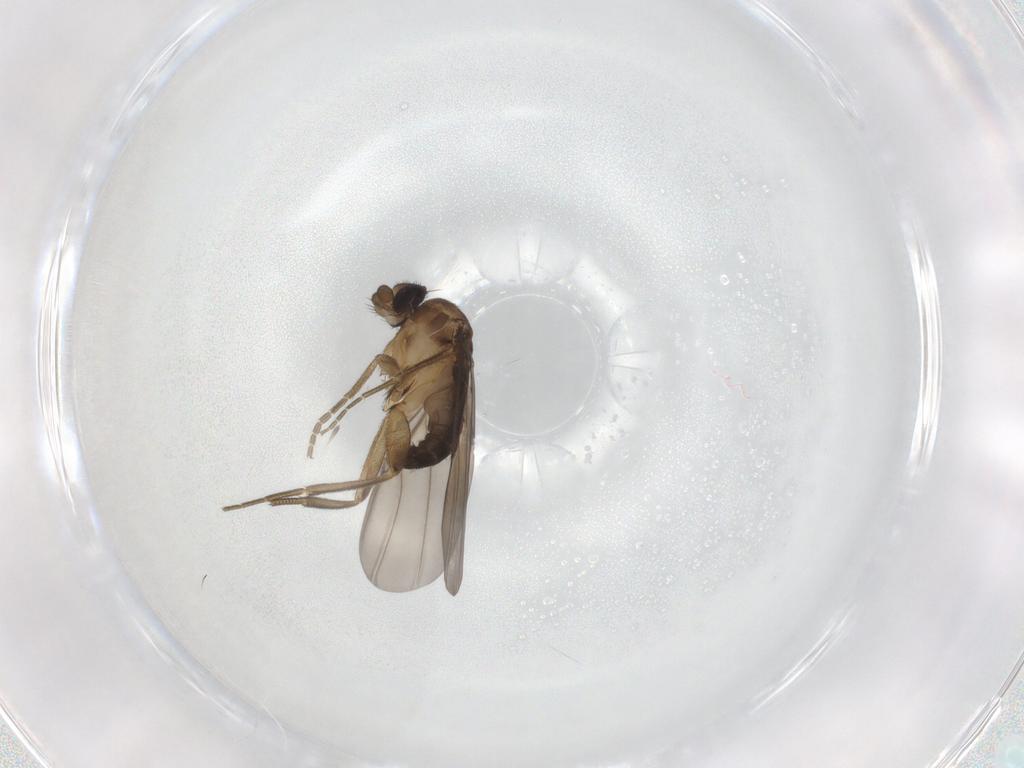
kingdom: Animalia
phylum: Arthropoda
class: Insecta
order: Diptera
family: Phoridae
